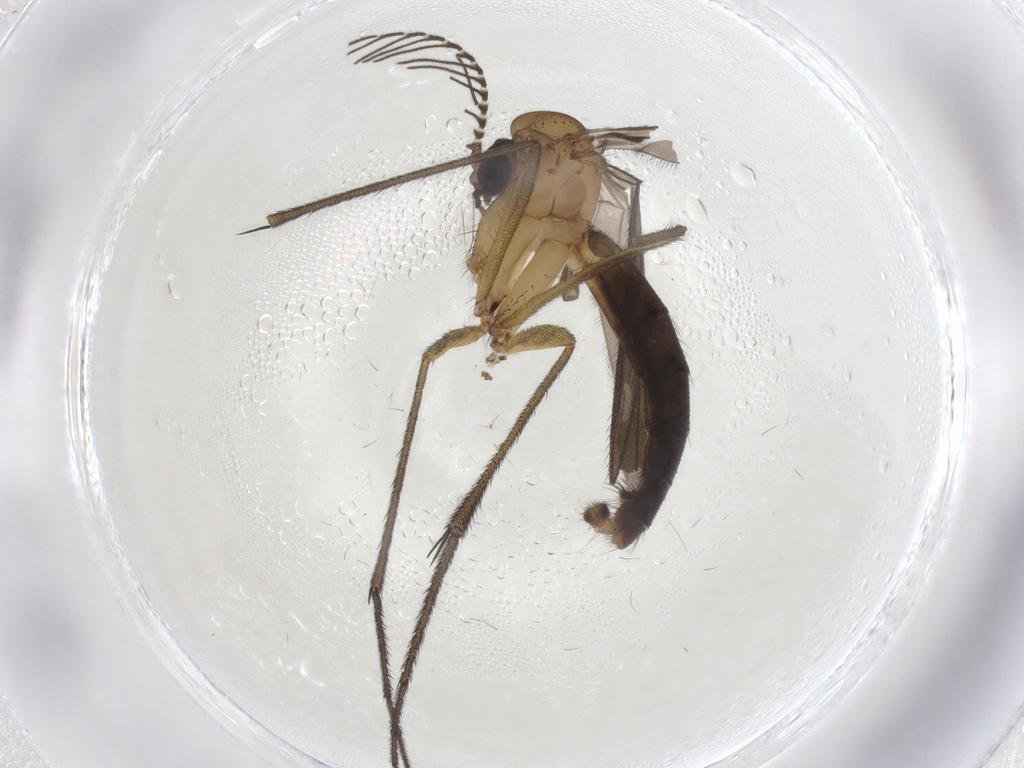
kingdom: Animalia
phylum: Arthropoda
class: Insecta
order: Diptera
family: Ditomyiidae
